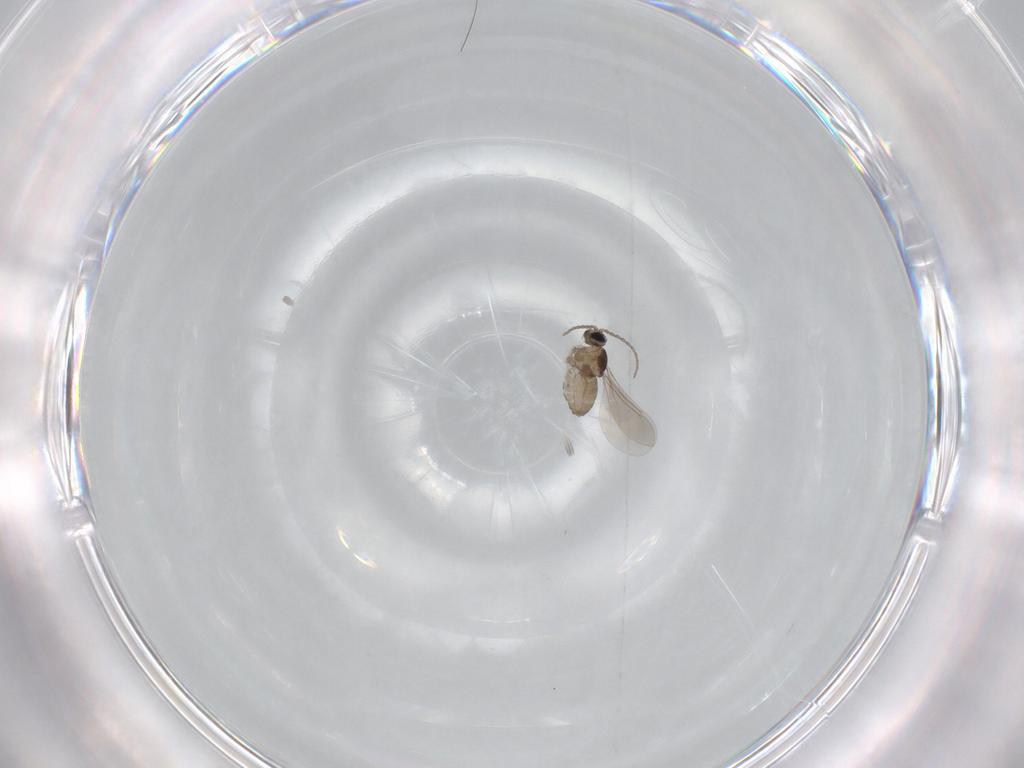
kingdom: Animalia
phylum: Arthropoda
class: Insecta
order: Diptera
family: Cecidomyiidae
